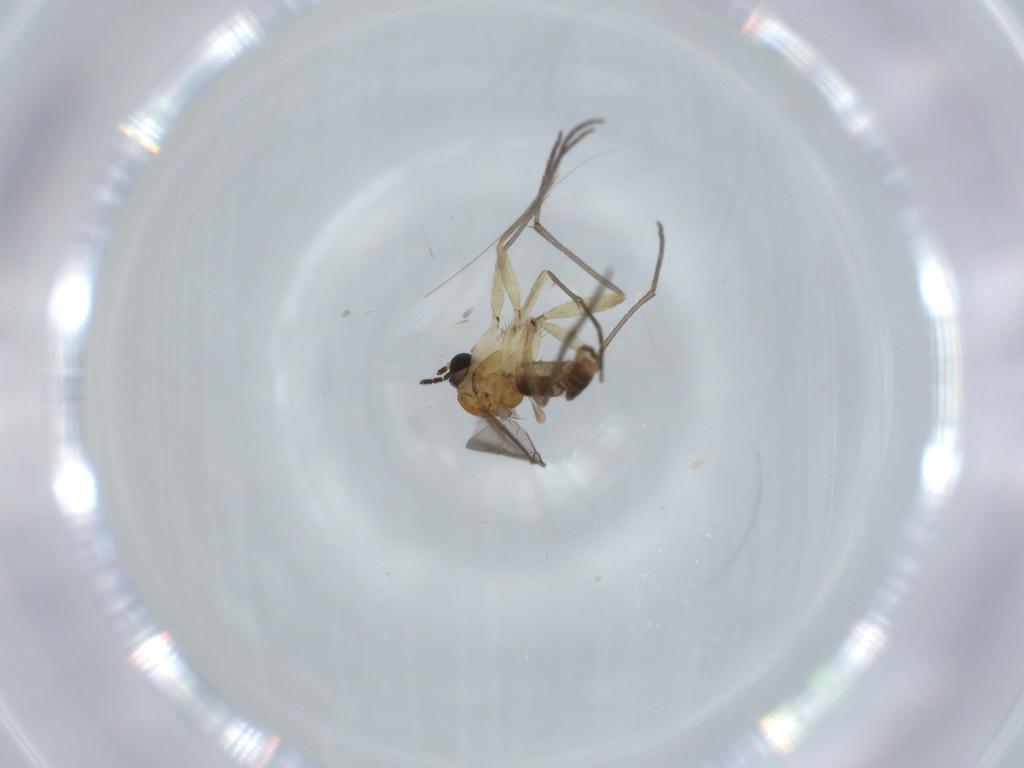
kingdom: Animalia
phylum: Arthropoda
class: Insecta
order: Diptera
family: Sciaridae
